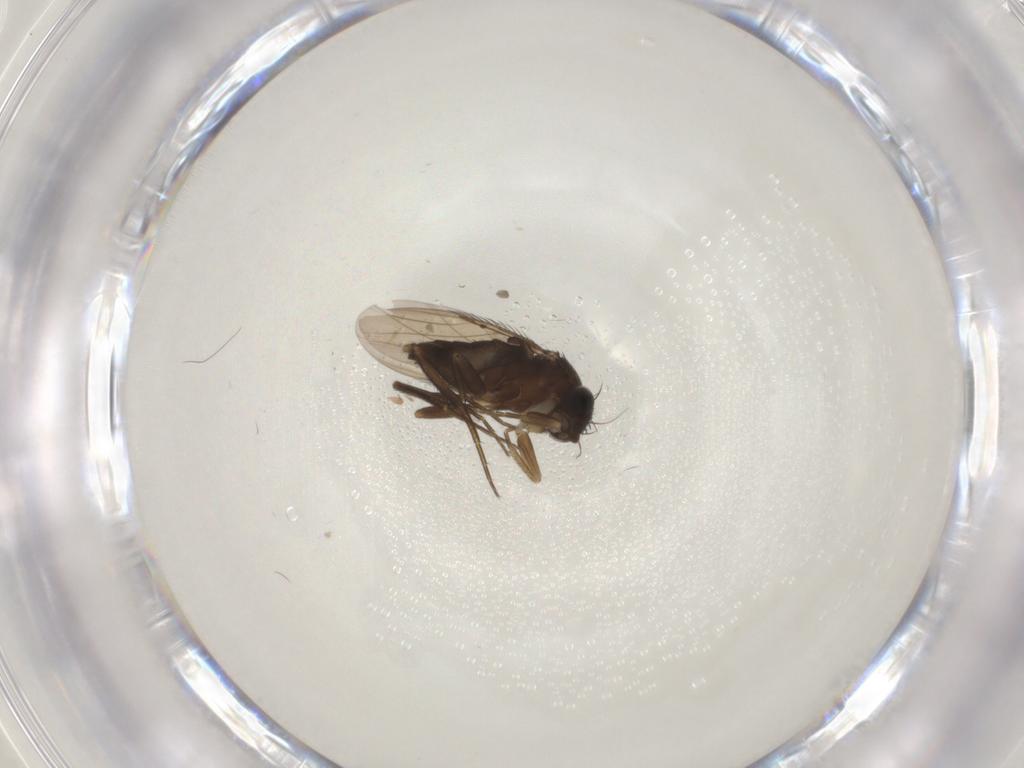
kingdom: Animalia
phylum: Arthropoda
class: Insecta
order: Diptera
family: Phoridae
